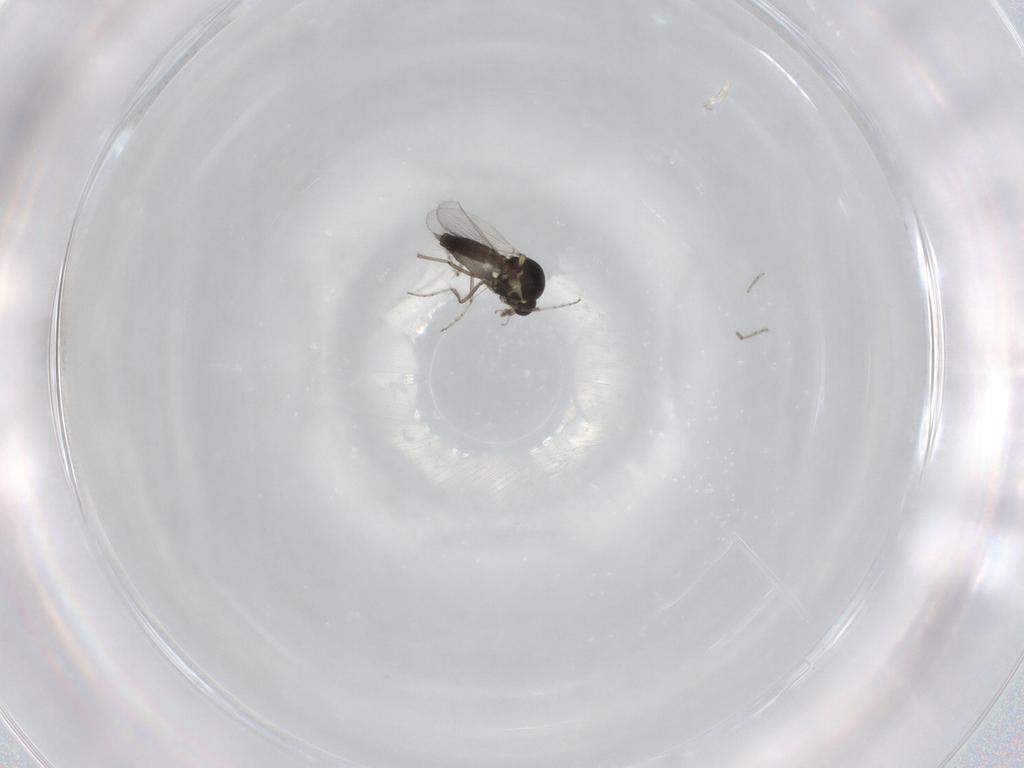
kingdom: Animalia
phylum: Arthropoda
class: Insecta
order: Diptera
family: Ceratopogonidae
